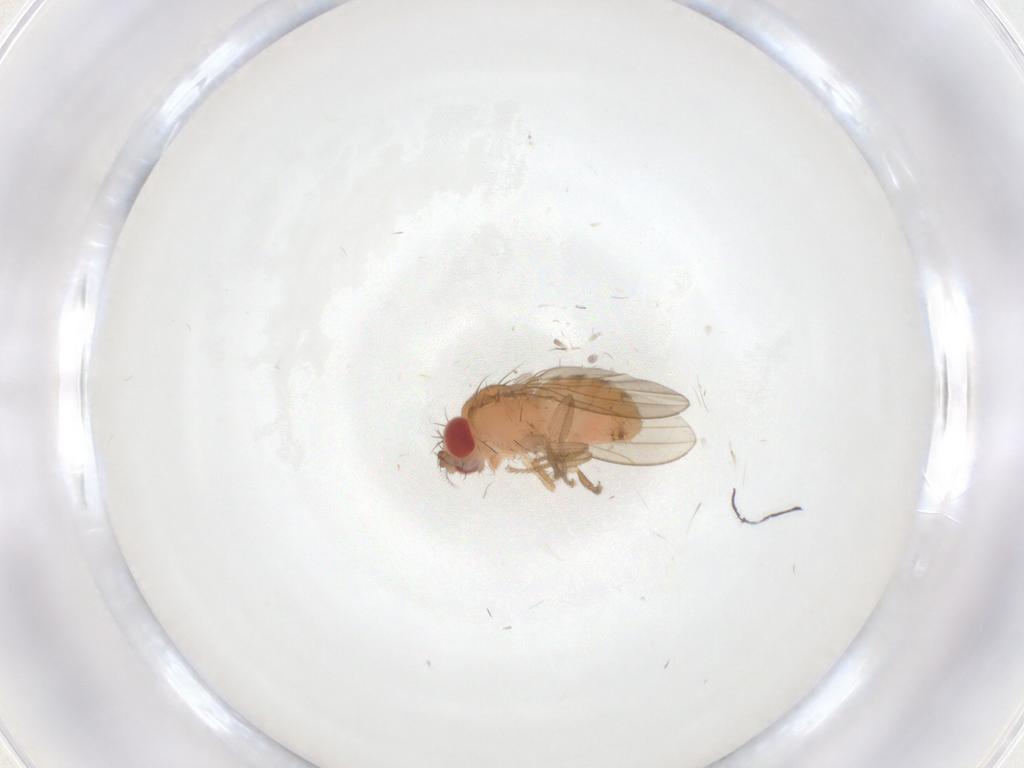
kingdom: Animalia
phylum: Arthropoda
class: Insecta
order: Diptera
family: Drosophilidae
